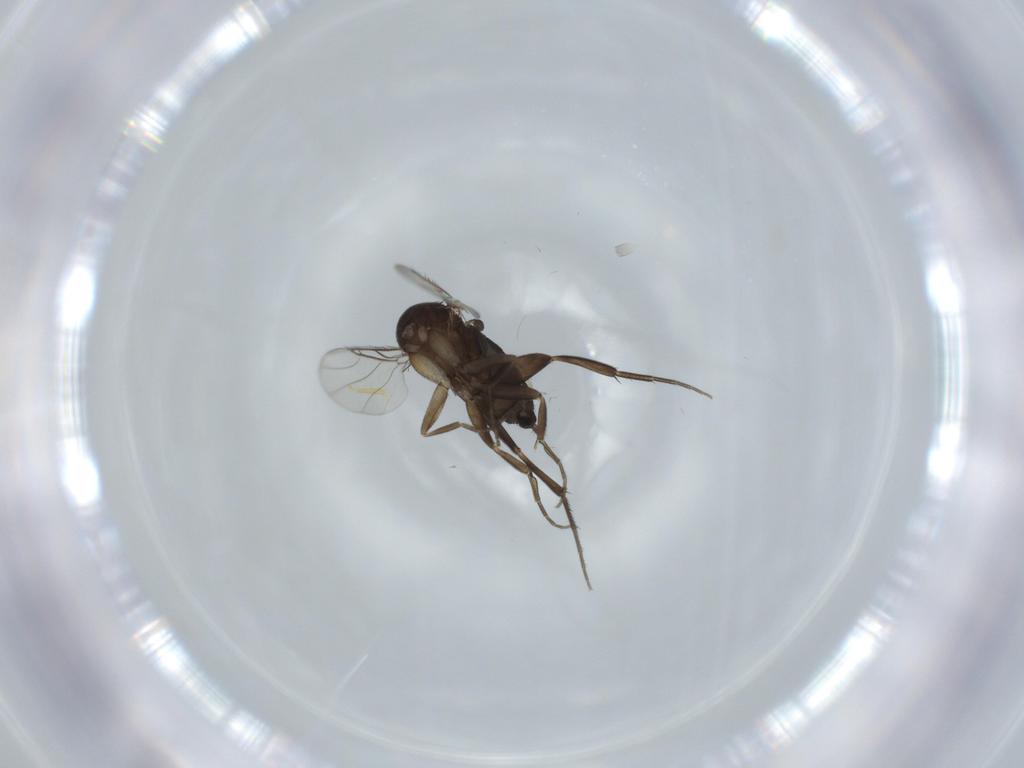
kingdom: Animalia
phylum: Arthropoda
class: Insecta
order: Diptera
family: Phoridae
